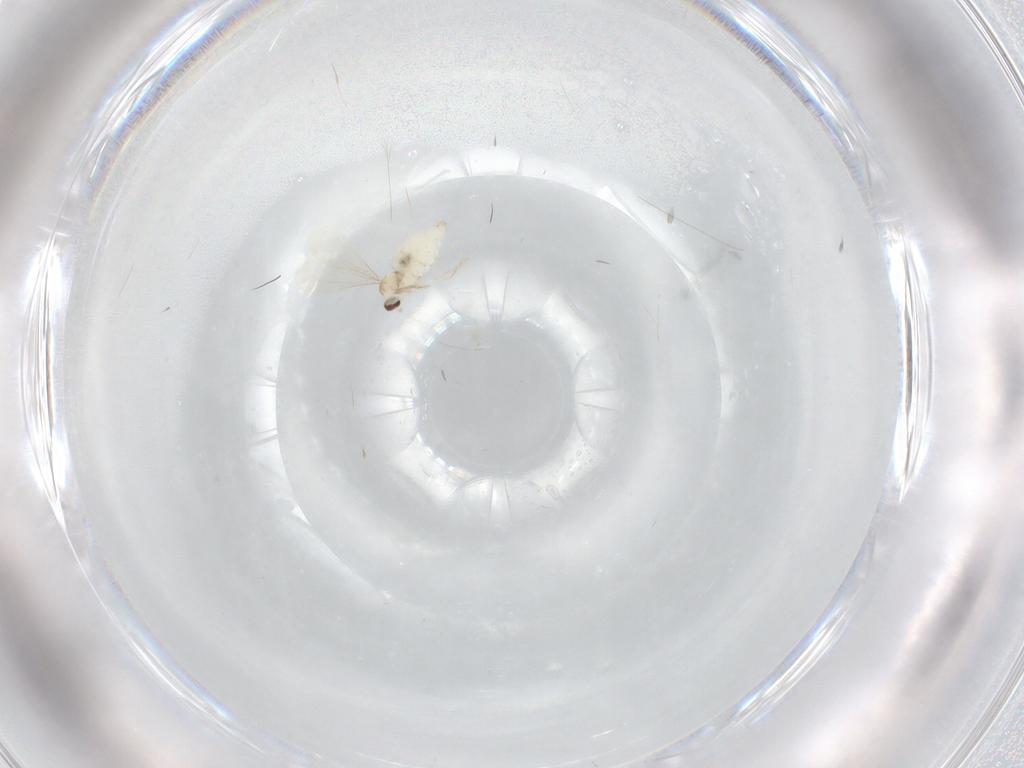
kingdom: Animalia
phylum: Arthropoda
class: Insecta
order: Diptera
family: Cecidomyiidae
